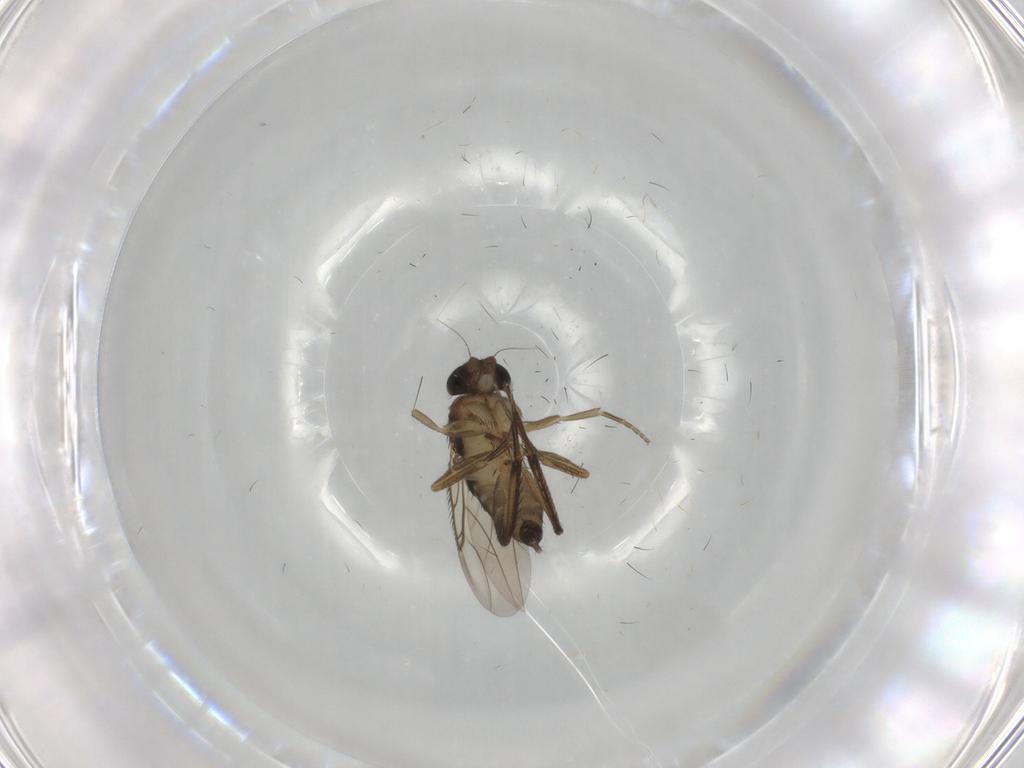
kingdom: Animalia
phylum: Arthropoda
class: Insecta
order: Diptera
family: Phoridae
